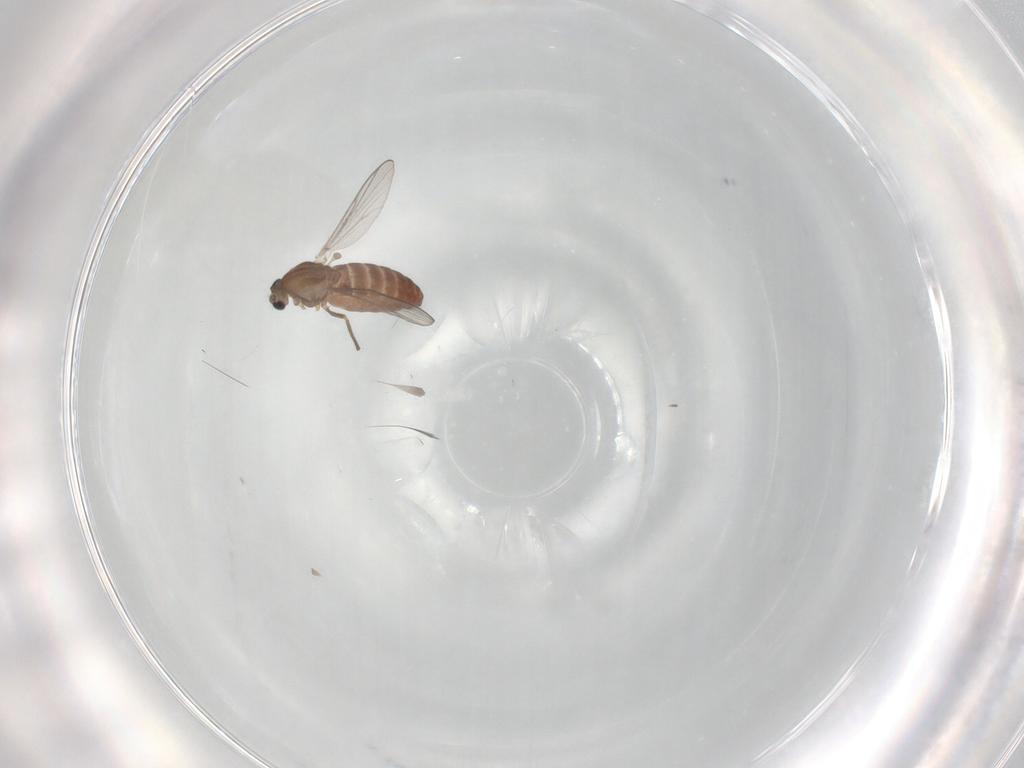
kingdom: Animalia
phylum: Arthropoda
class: Insecta
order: Diptera
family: Chironomidae
